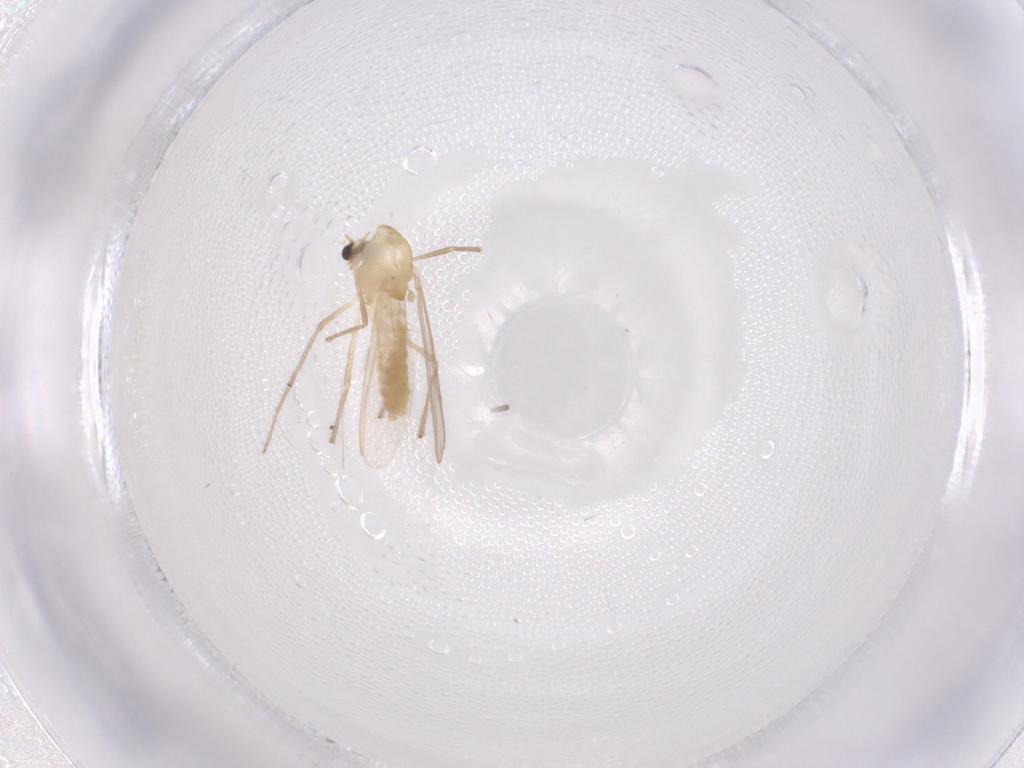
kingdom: Animalia
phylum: Arthropoda
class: Insecta
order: Diptera
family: Chironomidae
